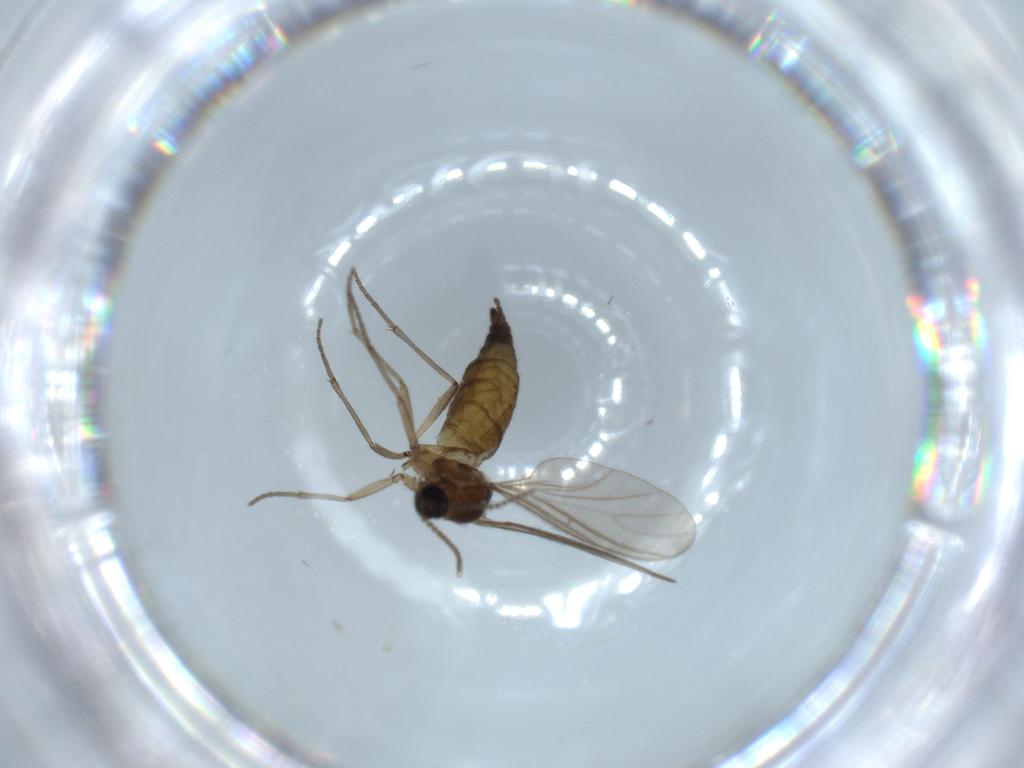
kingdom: Animalia
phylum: Arthropoda
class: Insecta
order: Diptera
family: Sciaridae
